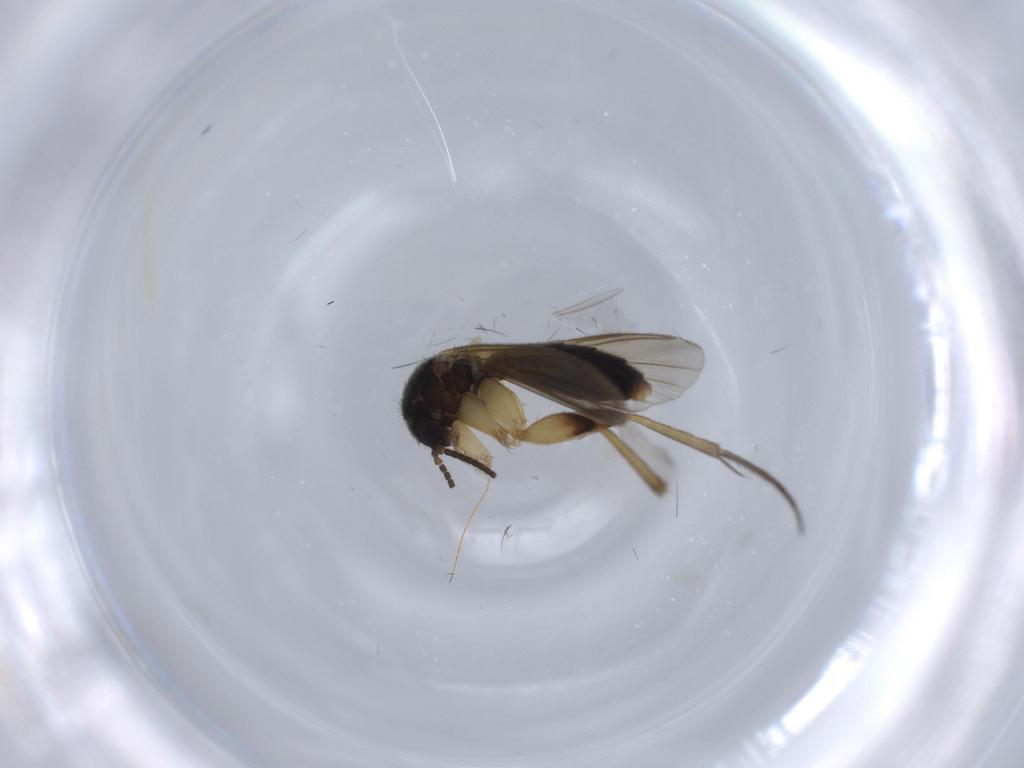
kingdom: Animalia
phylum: Arthropoda
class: Insecta
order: Diptera
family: Mycetophilidae
